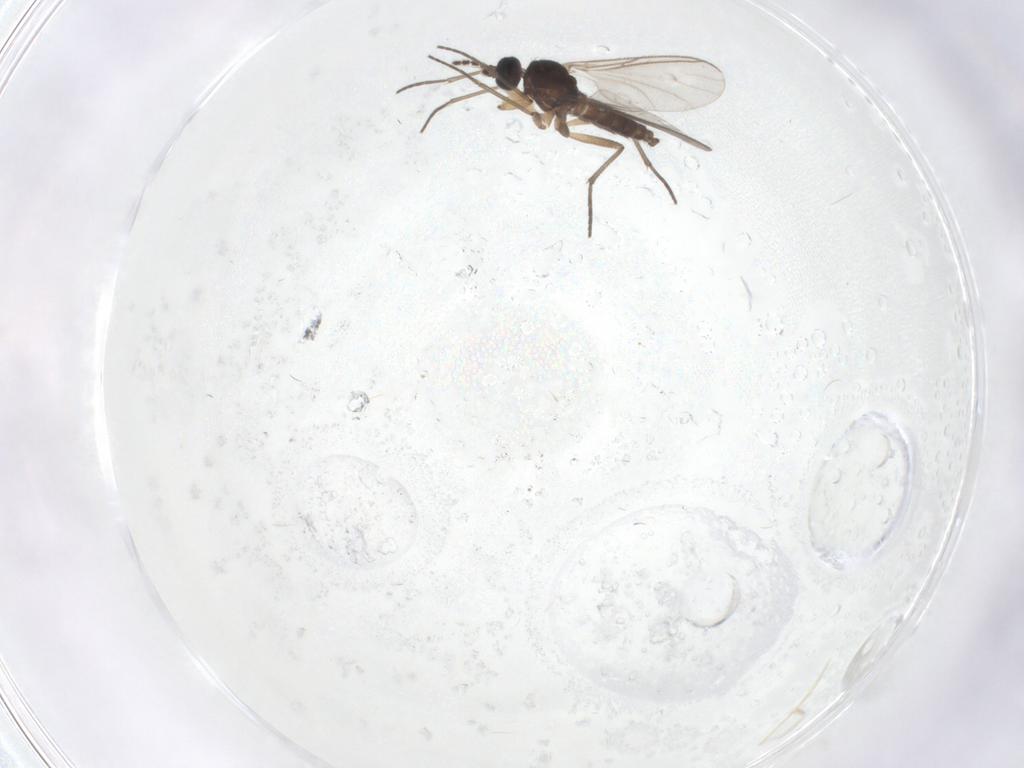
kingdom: Animalia
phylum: Arthropoda
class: Insecta
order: Diptera
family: Sciaridae
